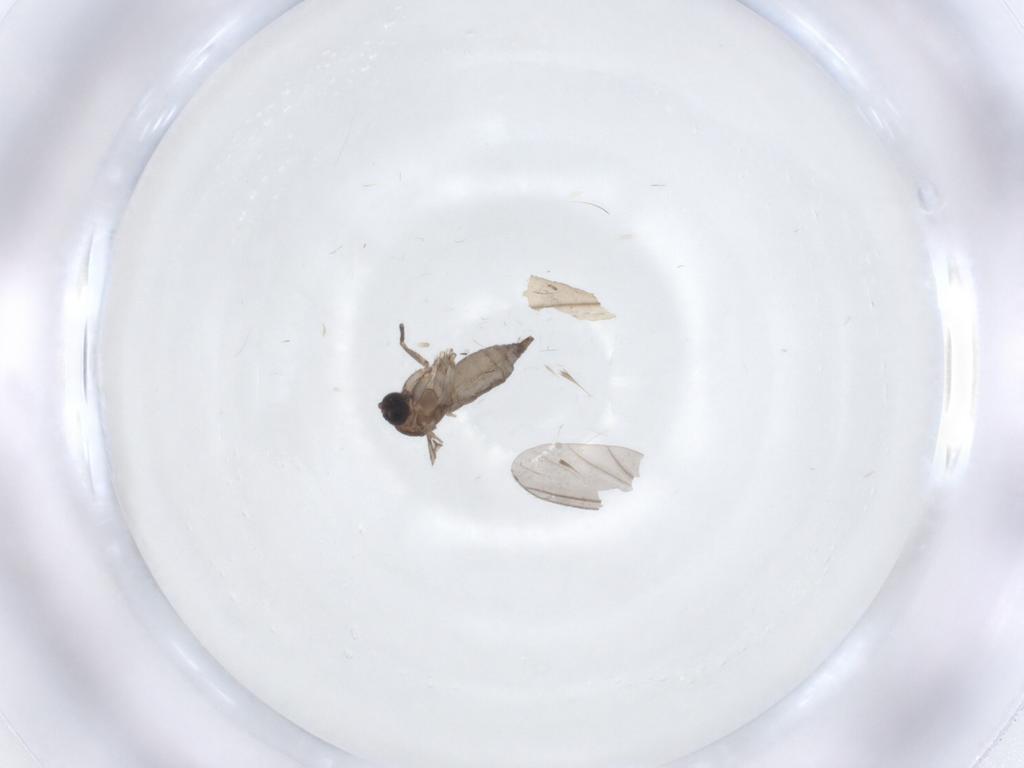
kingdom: Animalia
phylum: Arthropoda
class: Insecta
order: Diptera
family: Sciaridae
